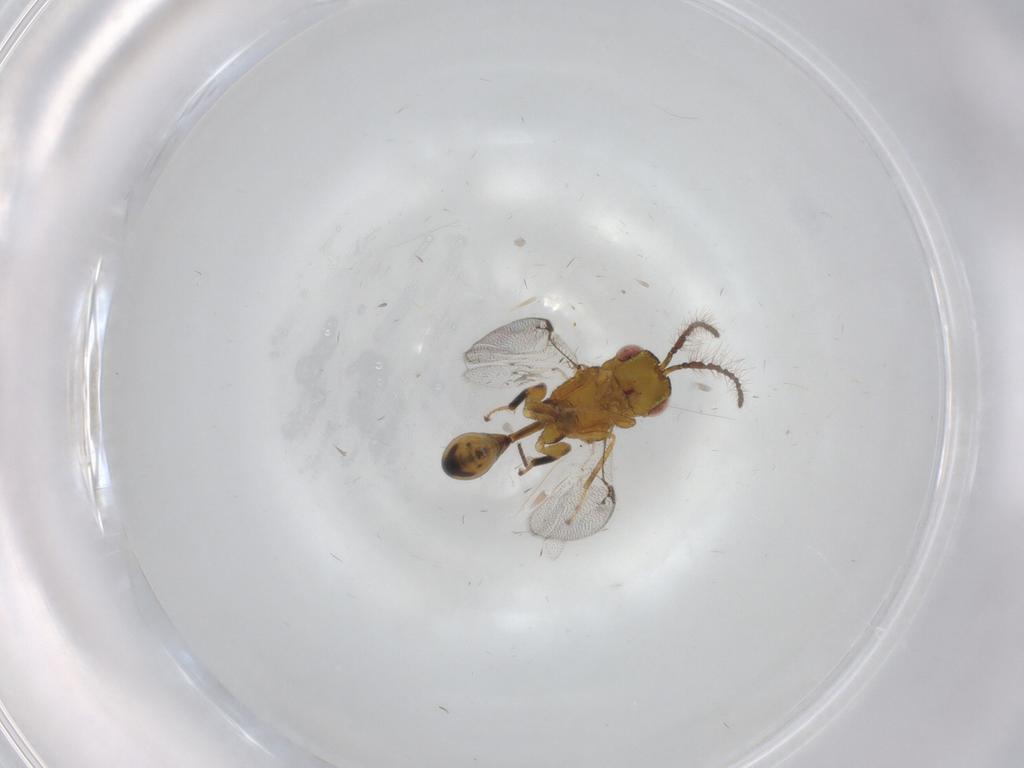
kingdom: Animalia
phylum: Arthropoda
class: Insecta
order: Hymenoptera
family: Eurytomidae
